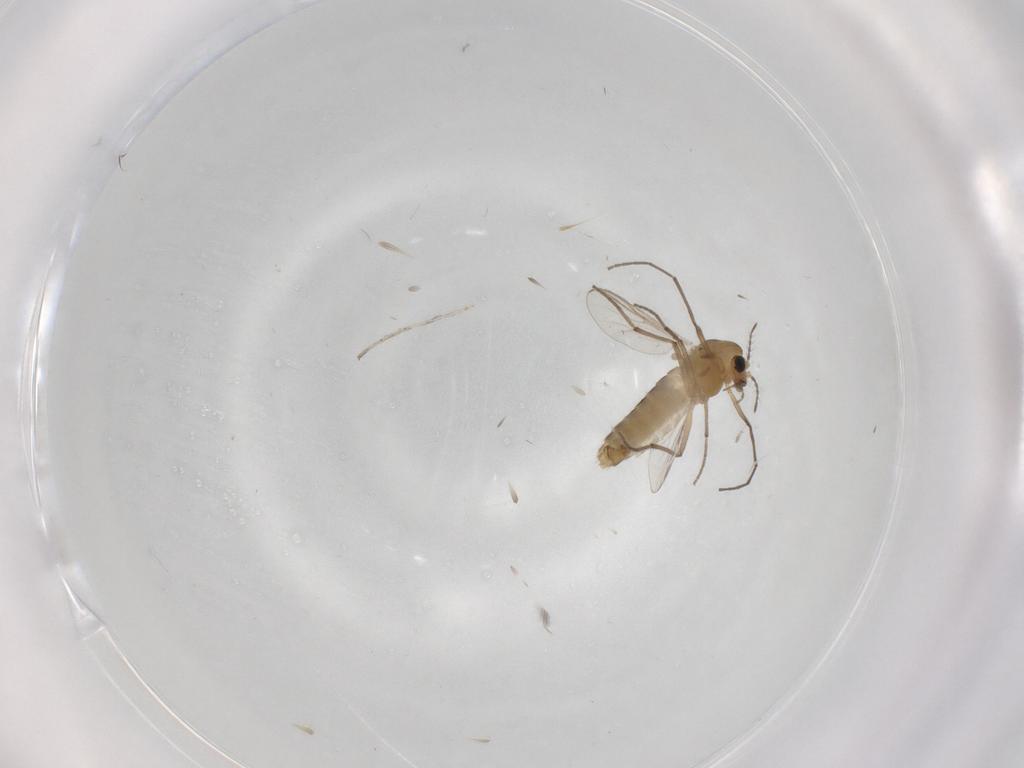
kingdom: Animalia
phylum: Arthropoda
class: Insecta
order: Diptera
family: Chironomidae
